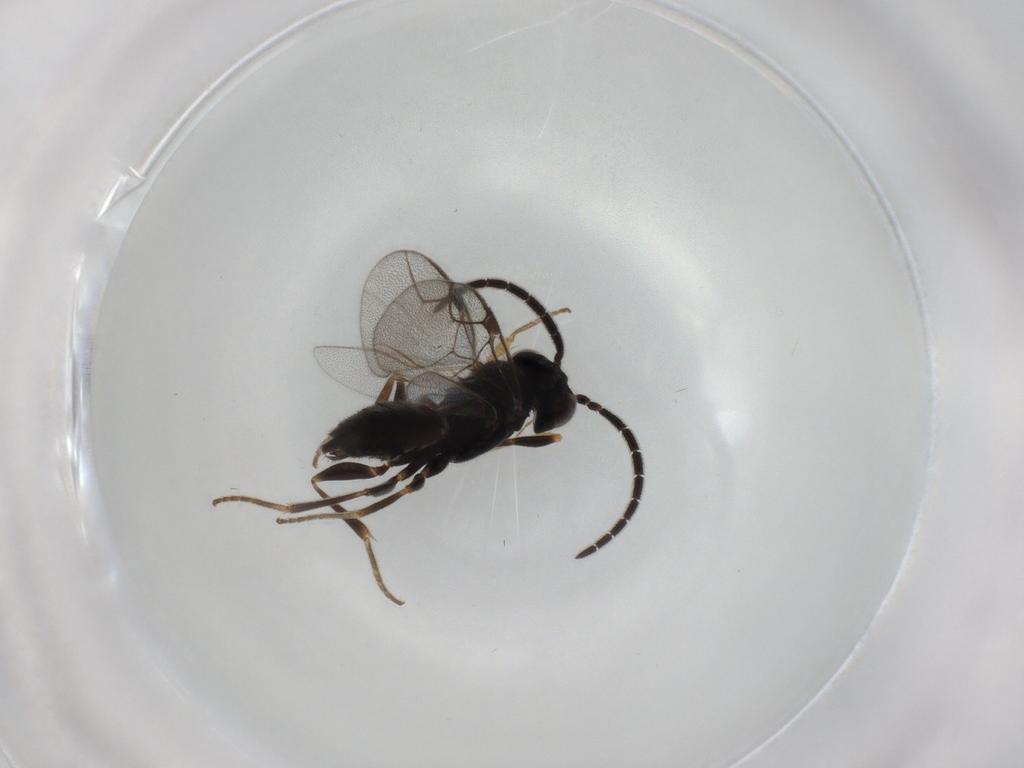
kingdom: Animalia
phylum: Arthropoda
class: Insecta
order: Hymenoptera
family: Dryinidae
